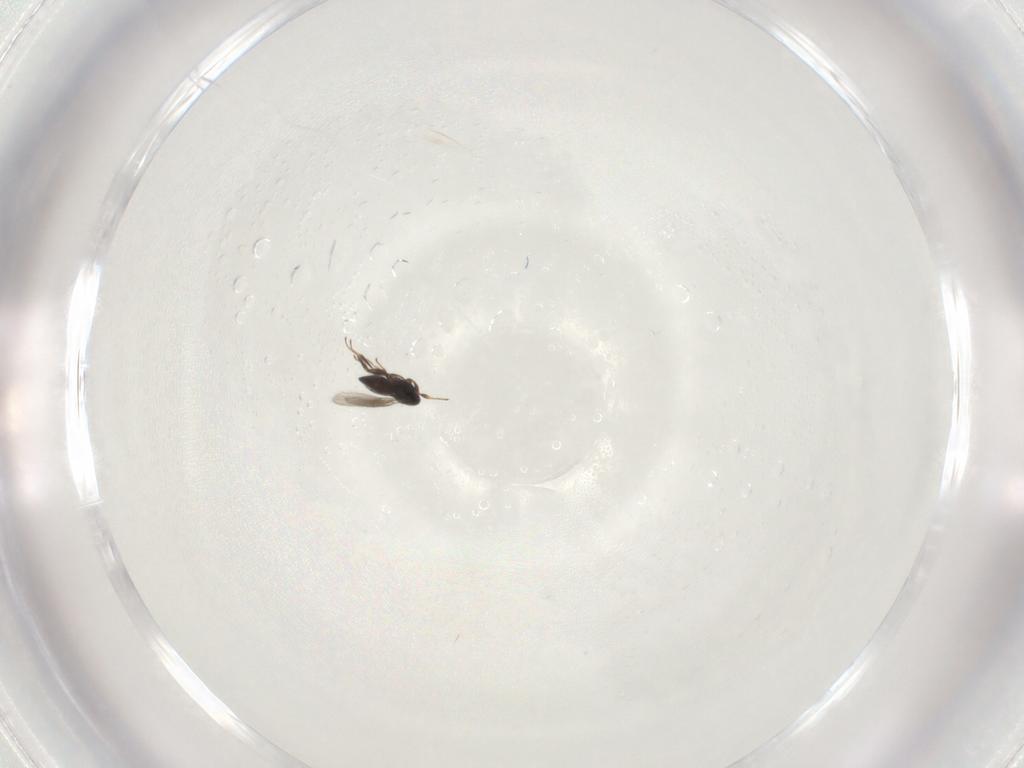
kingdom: Animalia
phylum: Arthropoda
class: Insecta
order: Hymenoptera
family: Scelionidae
